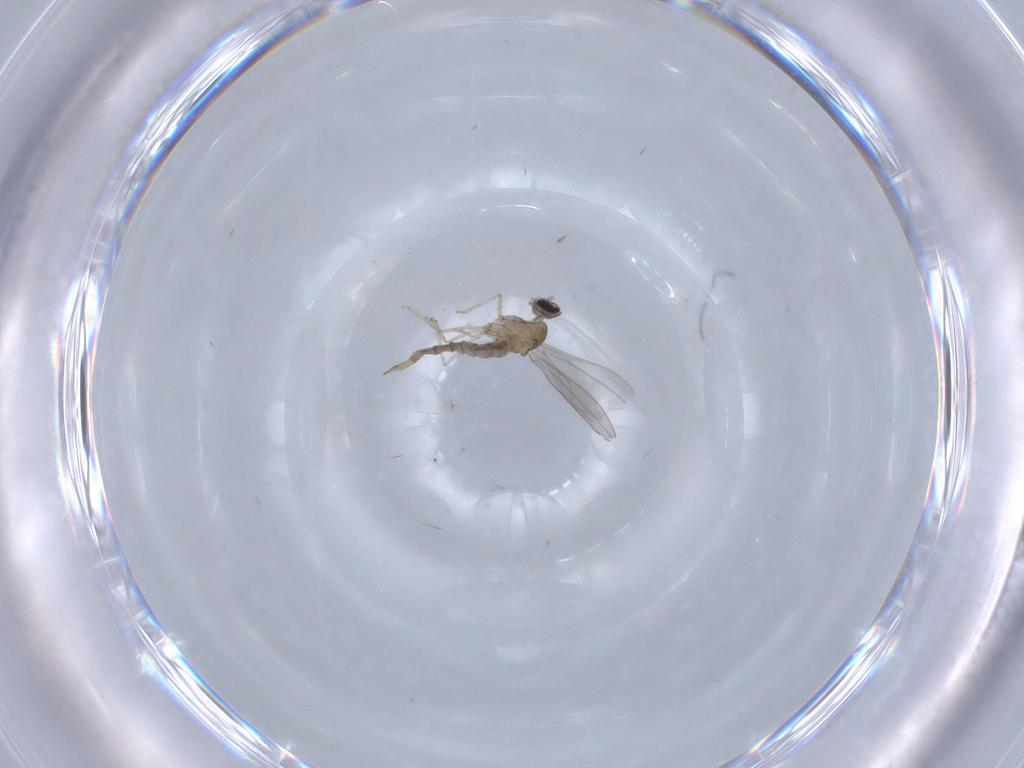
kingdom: Animalia
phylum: Arthropoda
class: Insecta
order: Diptera
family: Cecidomyiidae
